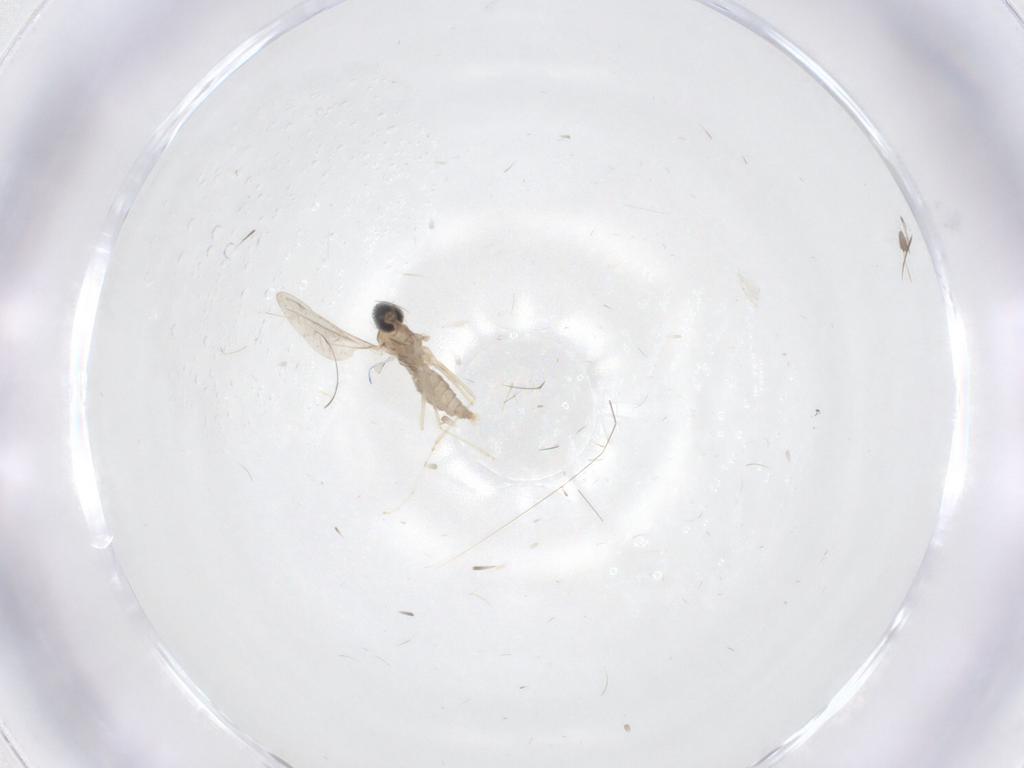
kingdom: Animalia
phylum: Arthropoda
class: Insecta
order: Diptera
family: Cecidomyiidae
